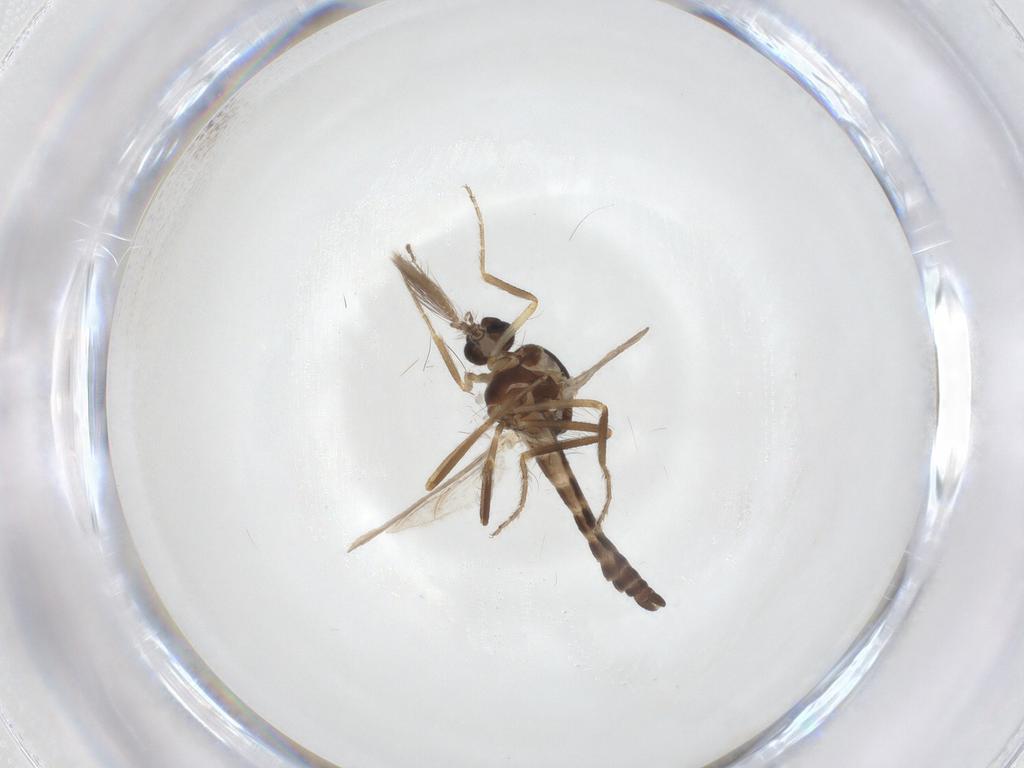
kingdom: Animalia
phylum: Arthropoda
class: Insecta
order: Diptera
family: Ceratopogonidae
